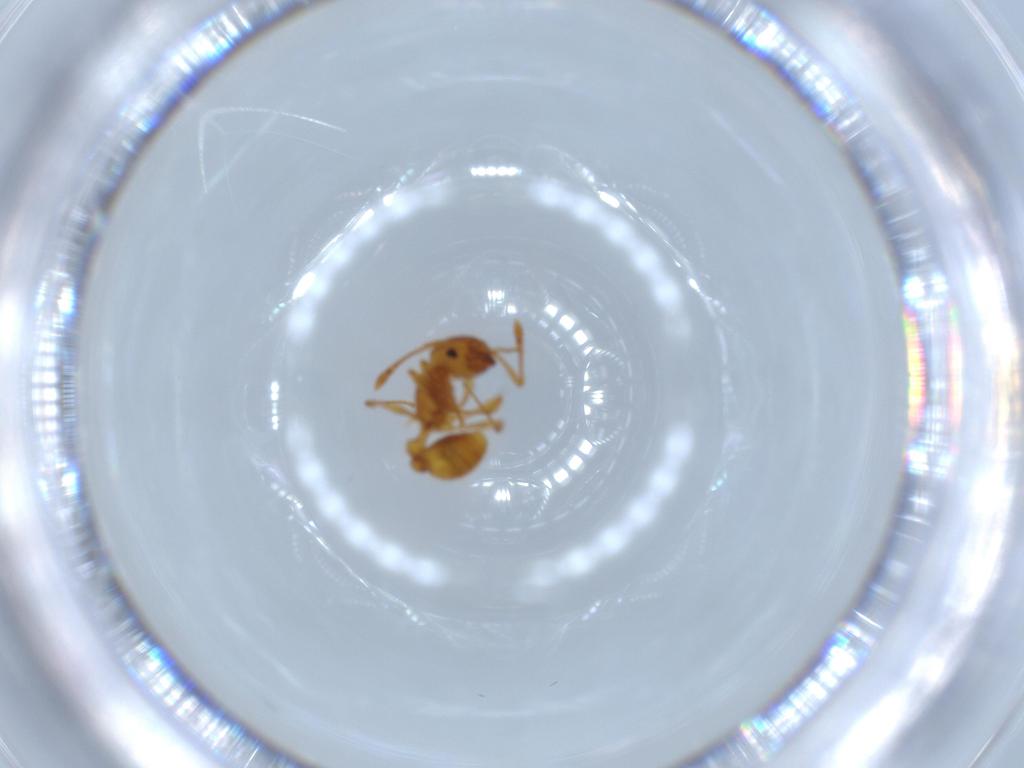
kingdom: Animalia
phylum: Arthropoda
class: Insecta
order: Hymenoptera
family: Formicidae
